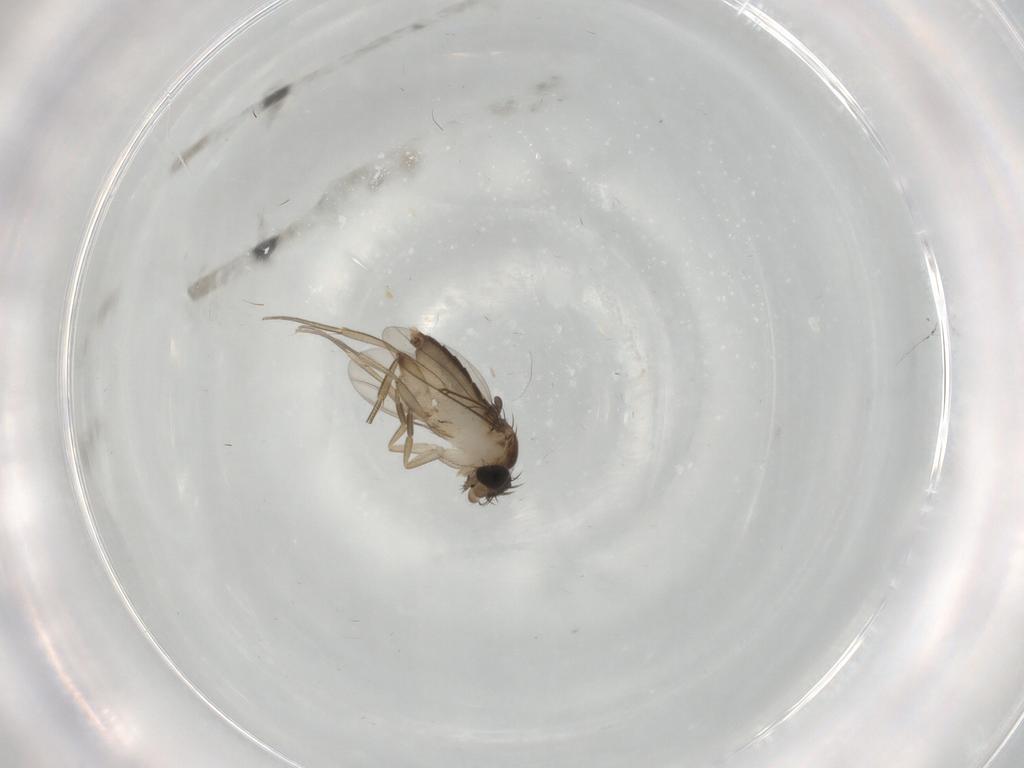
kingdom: Animalia
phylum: Arthropoda
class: Insecta
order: Diptera
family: Phoridae
